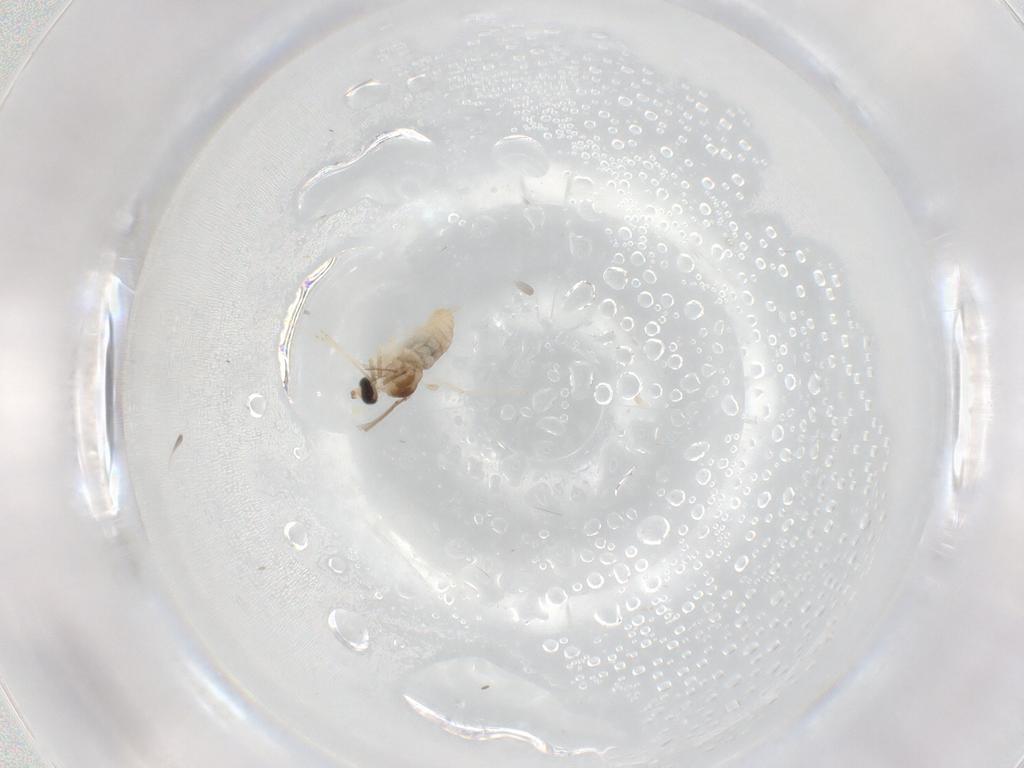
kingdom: Animalia
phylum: Arthropoda
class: Insecta
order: Diptera
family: Cecidomyiidae
